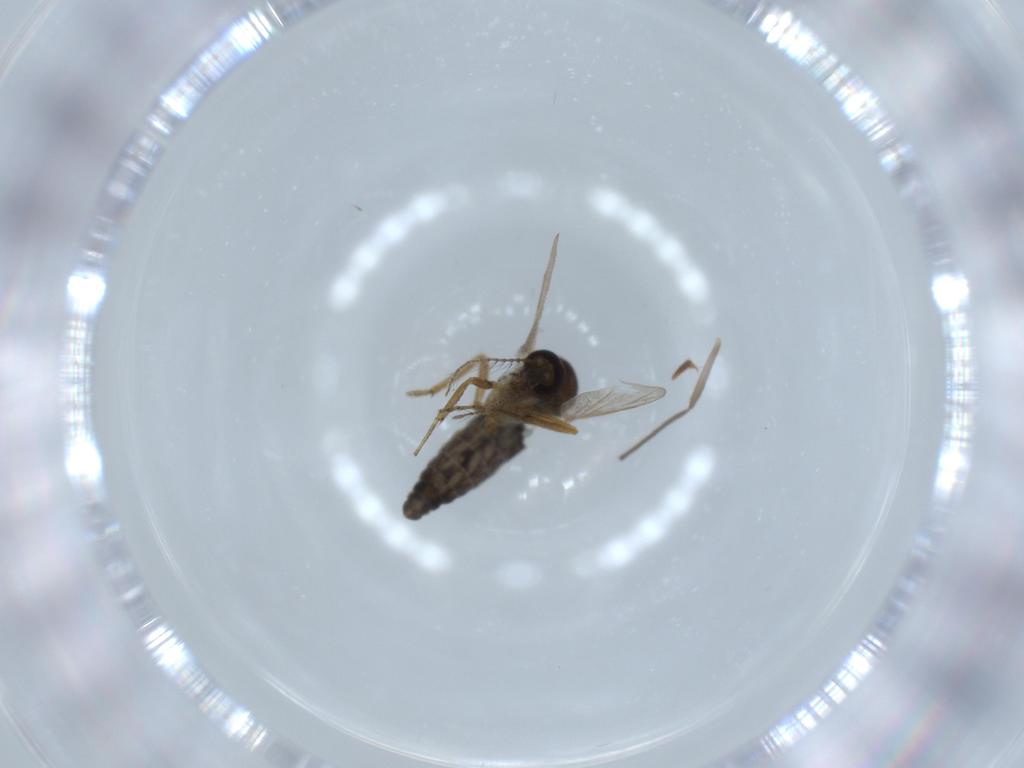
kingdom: Animalia
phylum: Arthropoda
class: Insecta
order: Diptera
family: Ceratopogonidae
